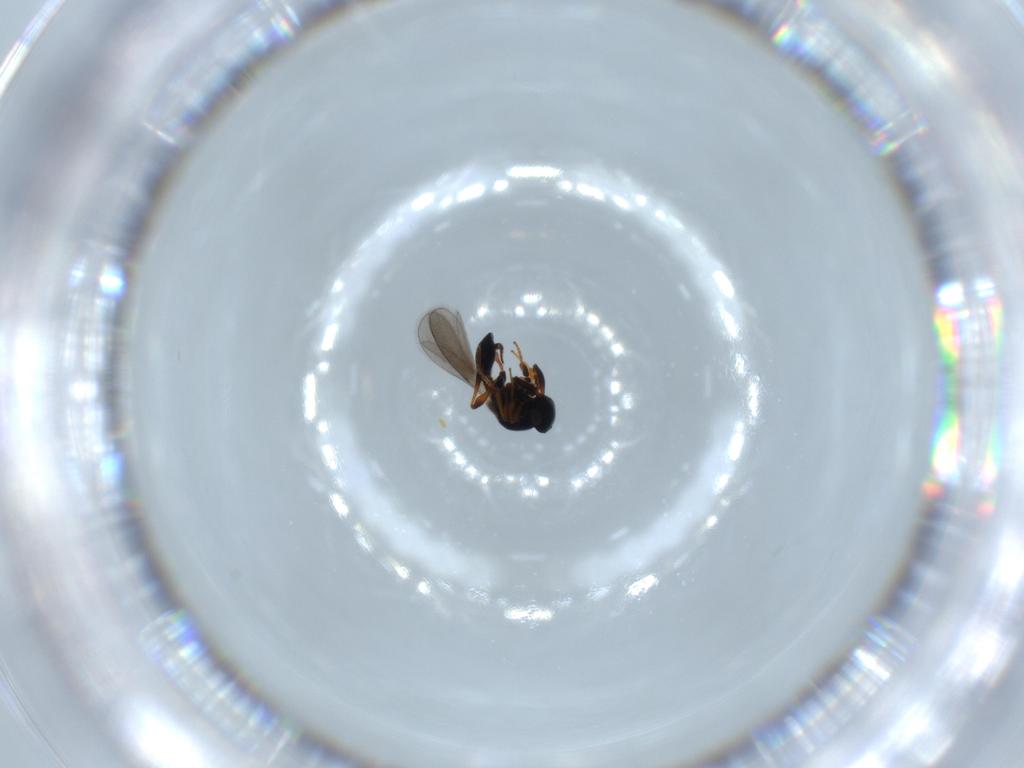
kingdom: Animalia
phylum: Arthropoda
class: Insecta
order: Hymenoptera
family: Platygastridae
